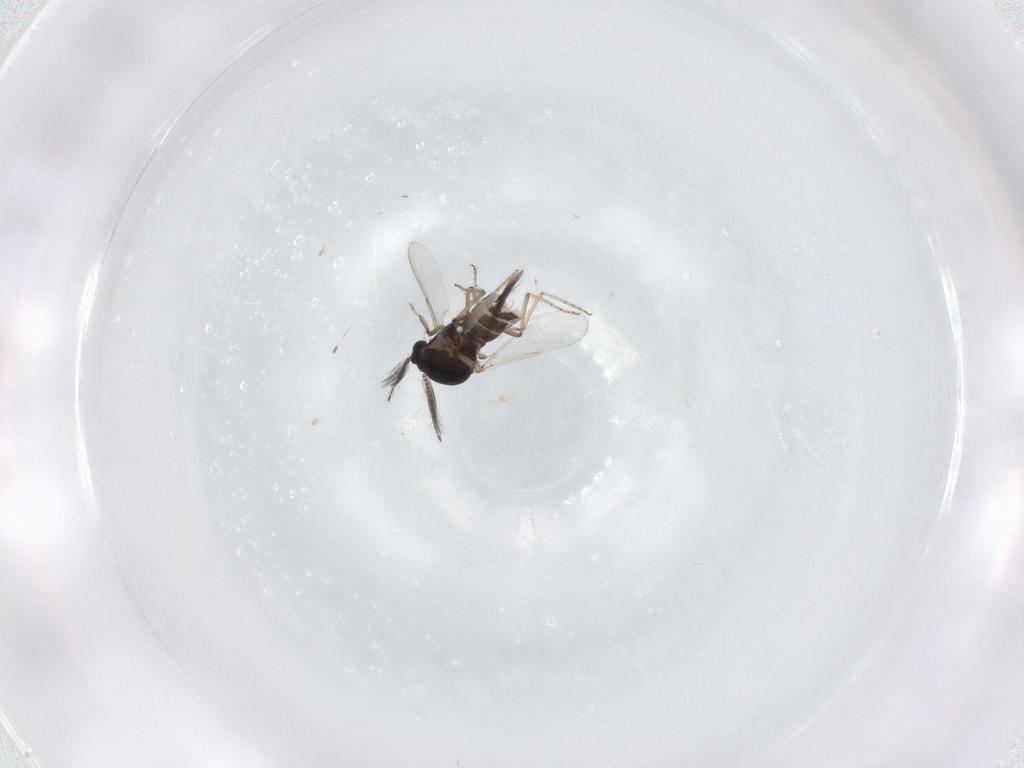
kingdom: Animalia
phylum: Arthropoda
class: Insecta
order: Diptera
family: Ceratopogonidae
